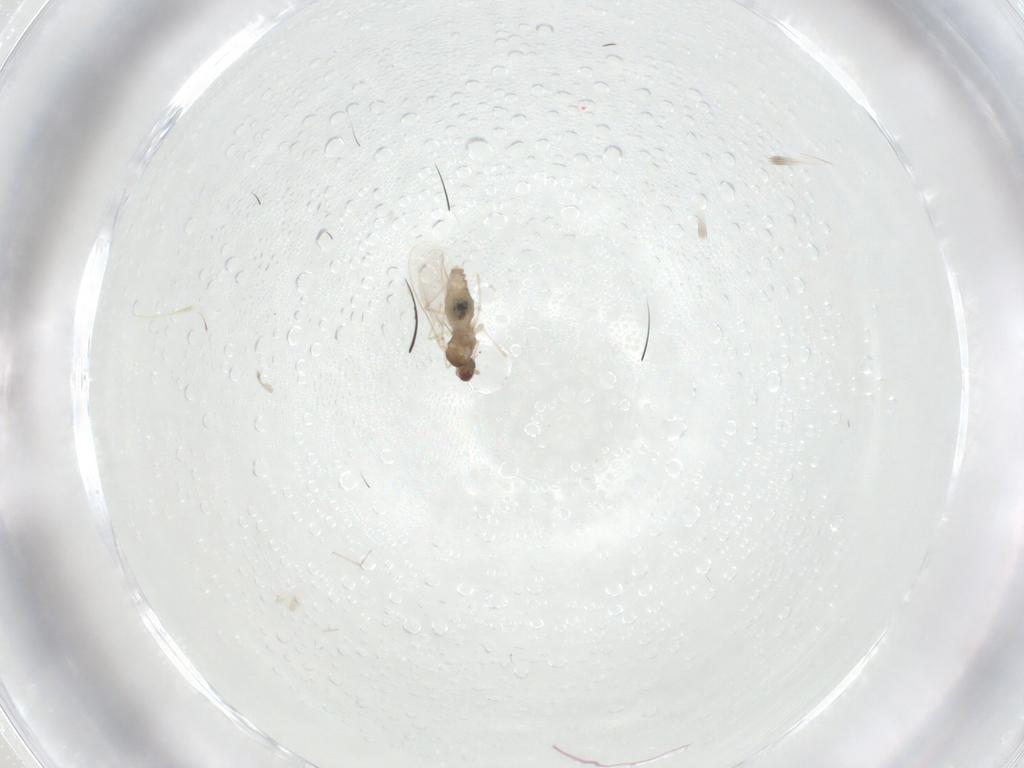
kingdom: Animalia
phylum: Arthropoda
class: Insecta
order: Diptera
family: Cecidomyiidae
